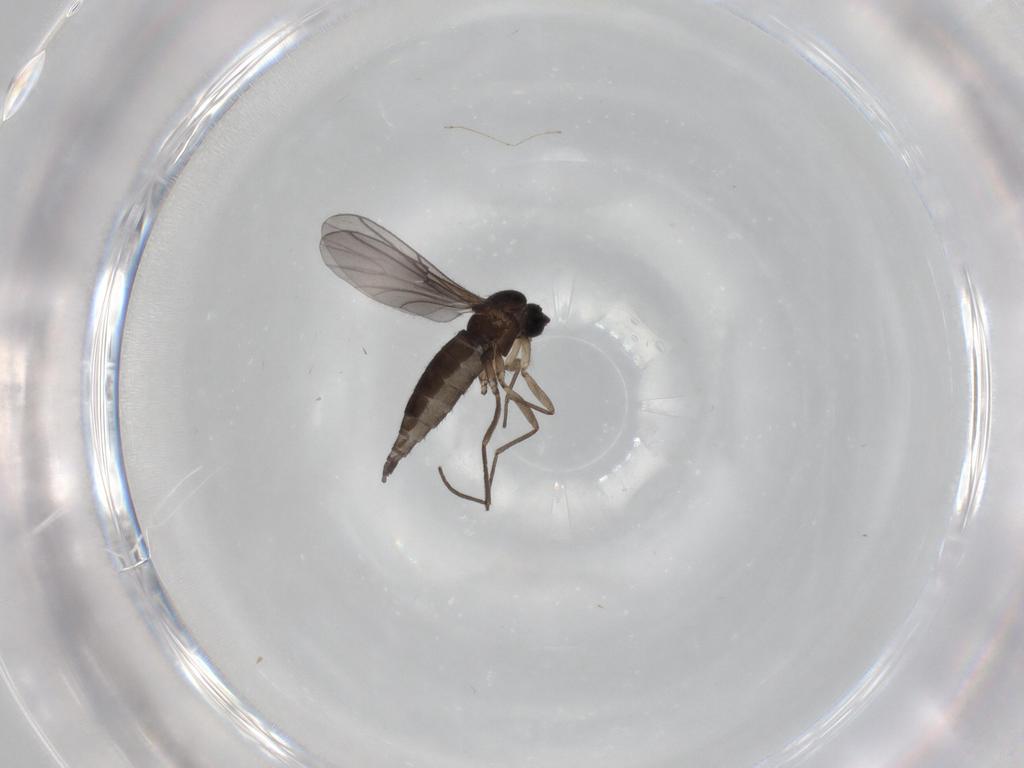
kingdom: Animalia
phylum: Arthropoda
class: Insecta
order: Diptera
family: Sciaridae
